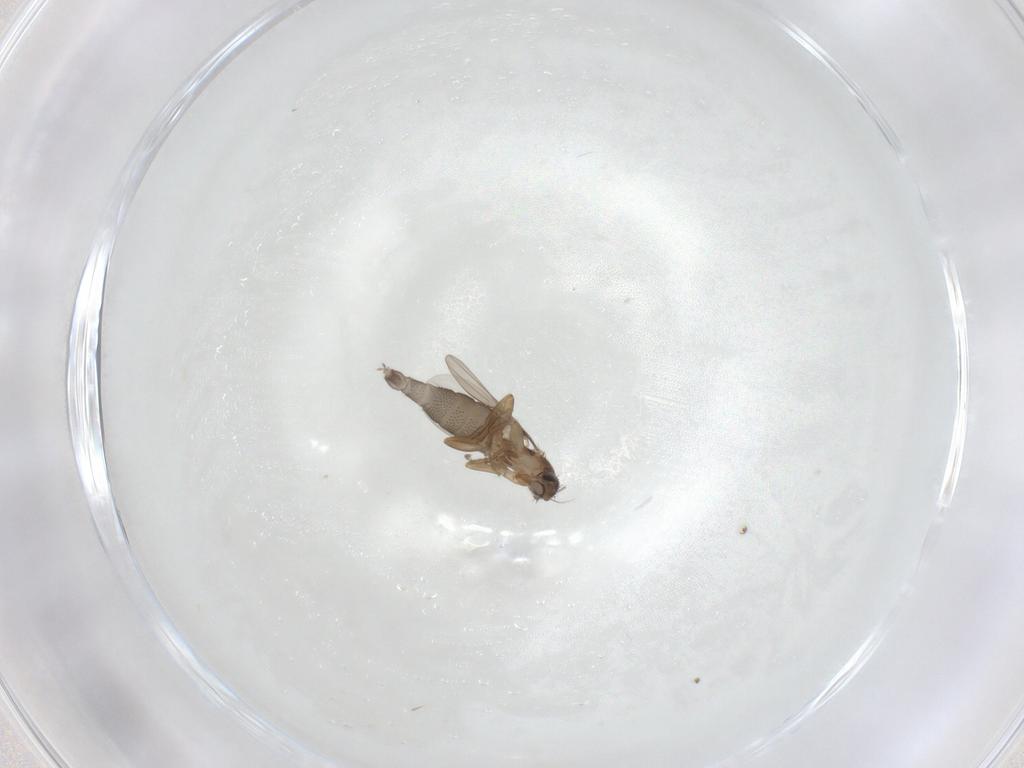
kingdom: Animalia
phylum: Arthropoda
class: Insecta
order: Diptera
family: Phoridae
